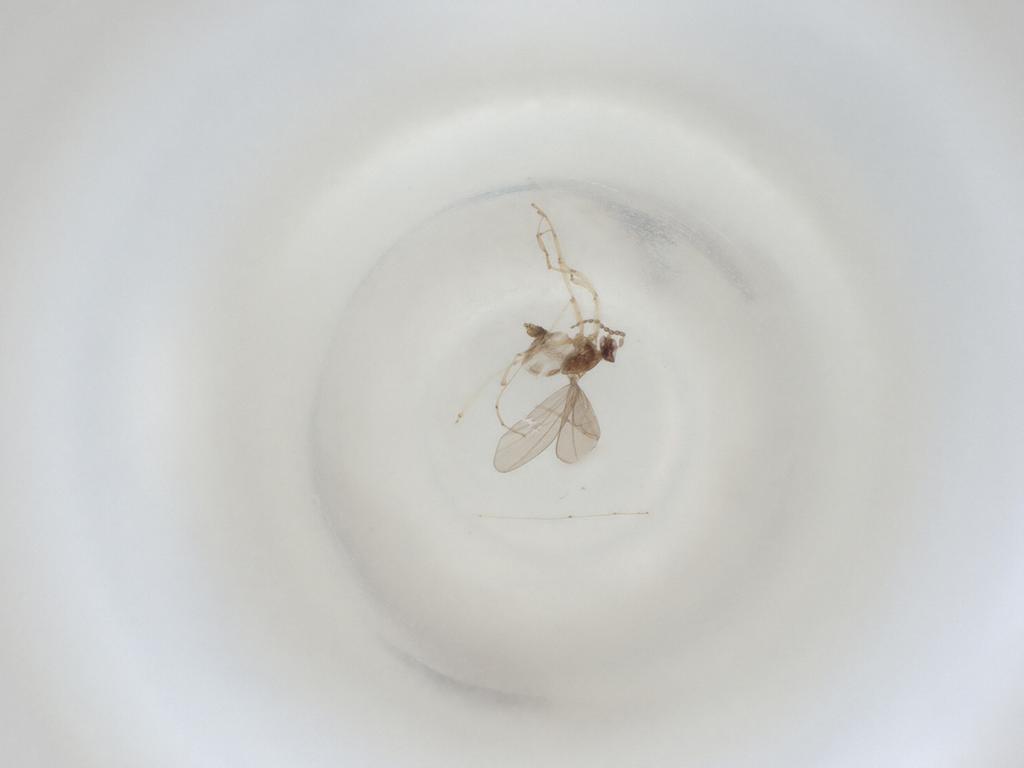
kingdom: Animalia
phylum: Arthropoda
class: Insecta
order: Diptera
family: Cecidomyiidae
